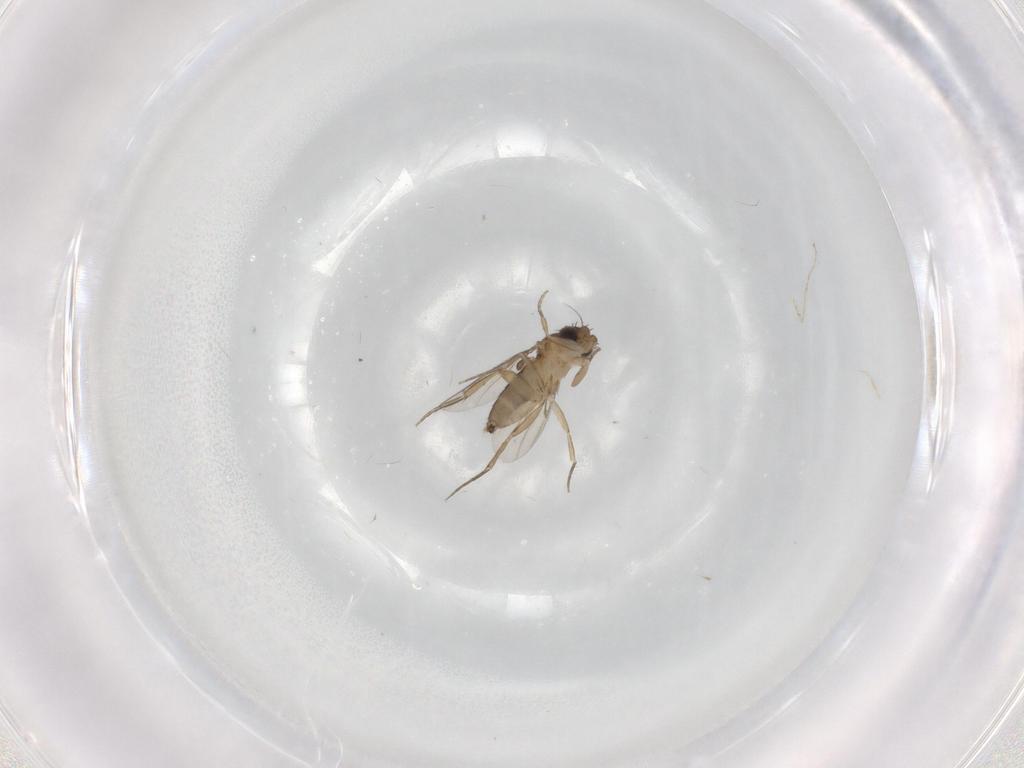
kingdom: Animalia
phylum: Arthropoda
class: Insecta
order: Diptera
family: Phoridae
